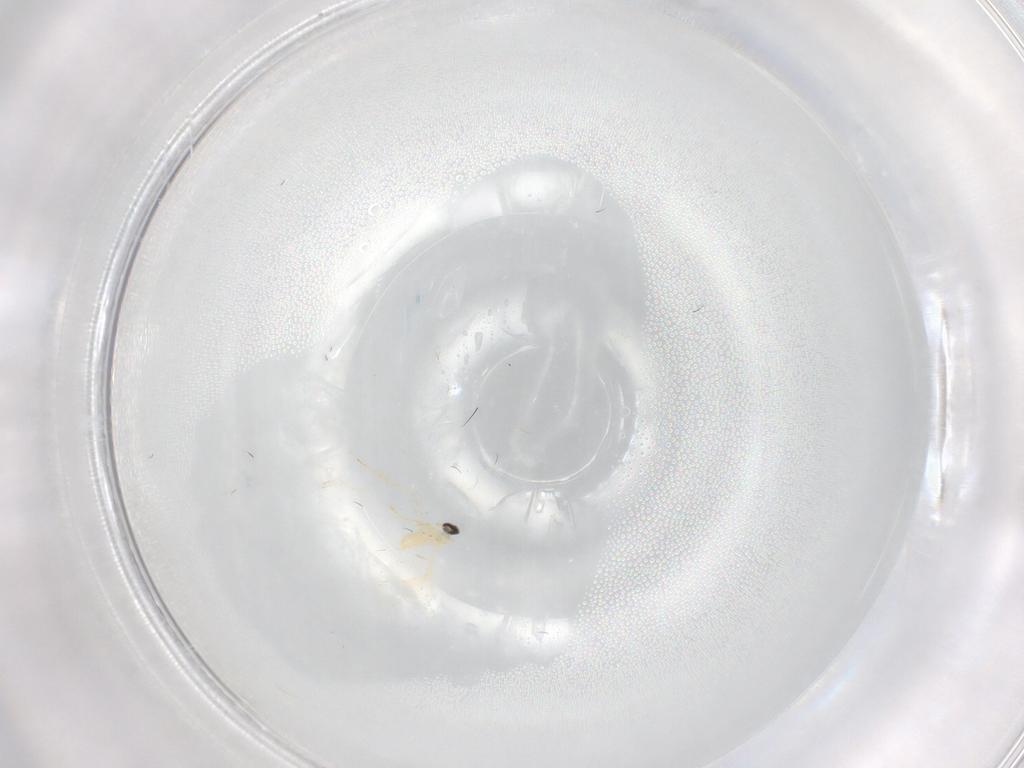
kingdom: Animalia
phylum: Arthropoda
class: Insecta
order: Diptera
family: Cecidomyiidae
